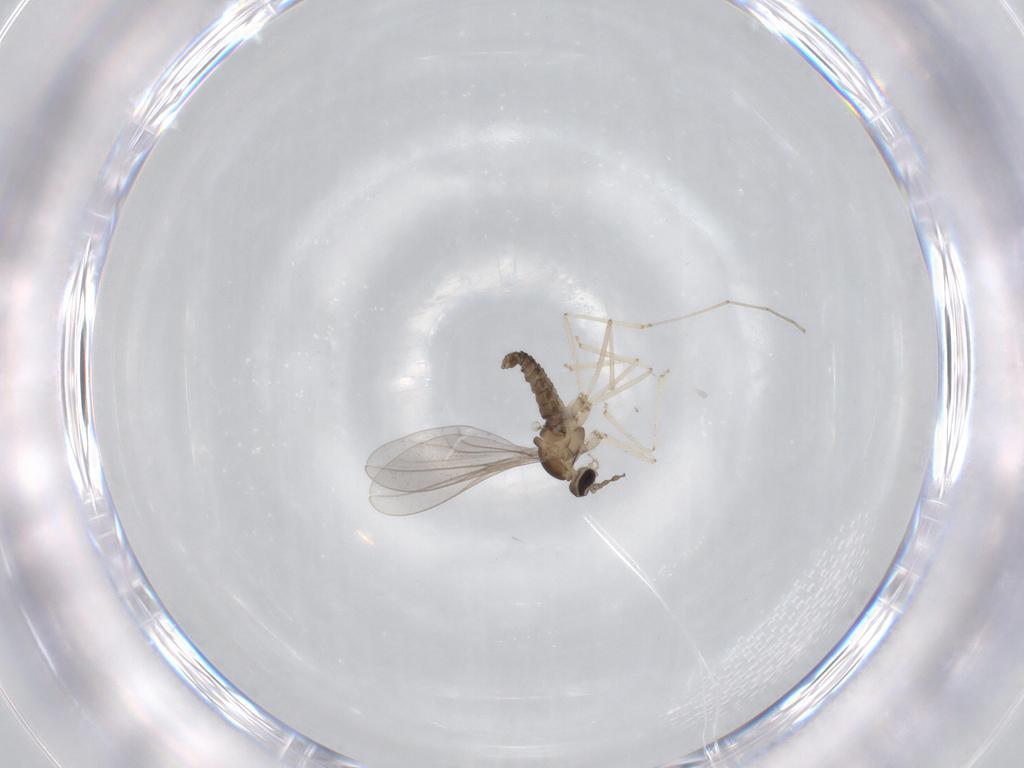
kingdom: Animalia
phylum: Arthropoda
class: Insecta
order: Diptera
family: Cecidomyiidae
